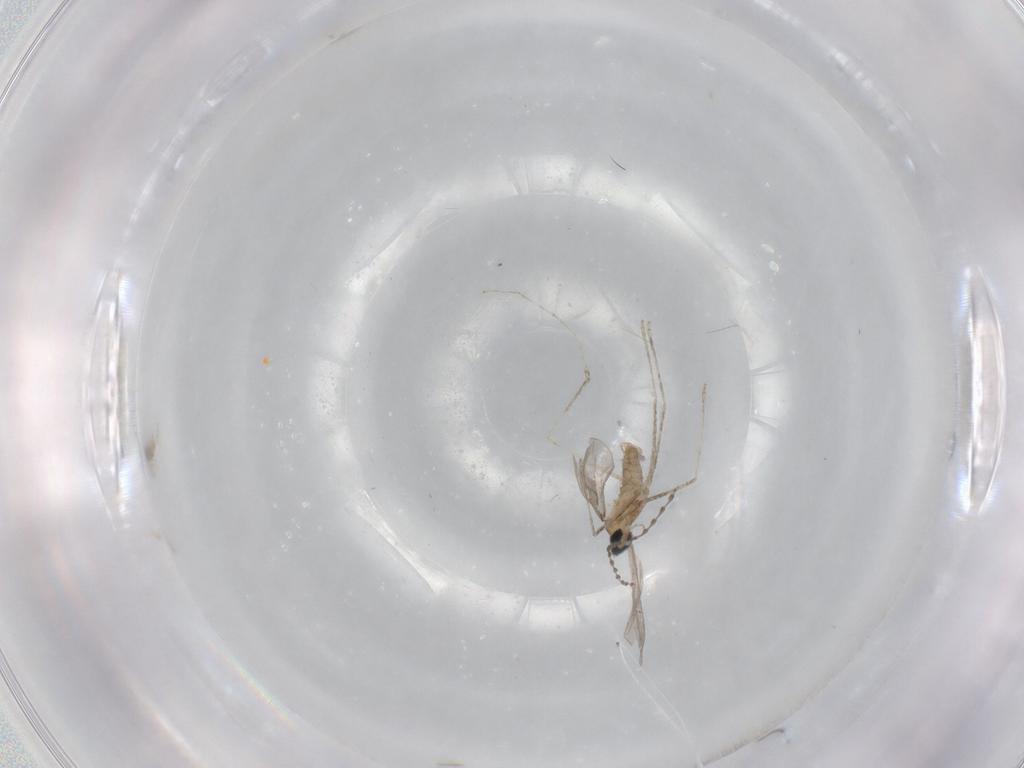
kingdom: Animalia
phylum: Arthropoda
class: Insecta
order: Diptera
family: Cecidomyiidae
